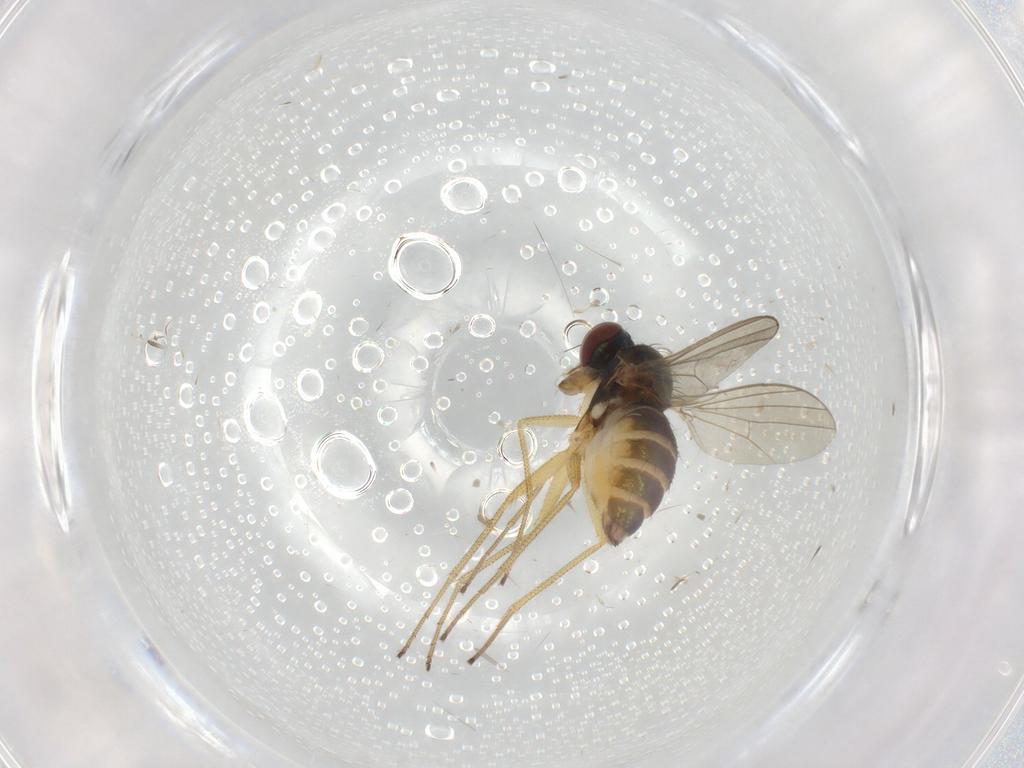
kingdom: Animalia
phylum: Arthropoda
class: Insecta
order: Diptera
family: Dolichopodidae
